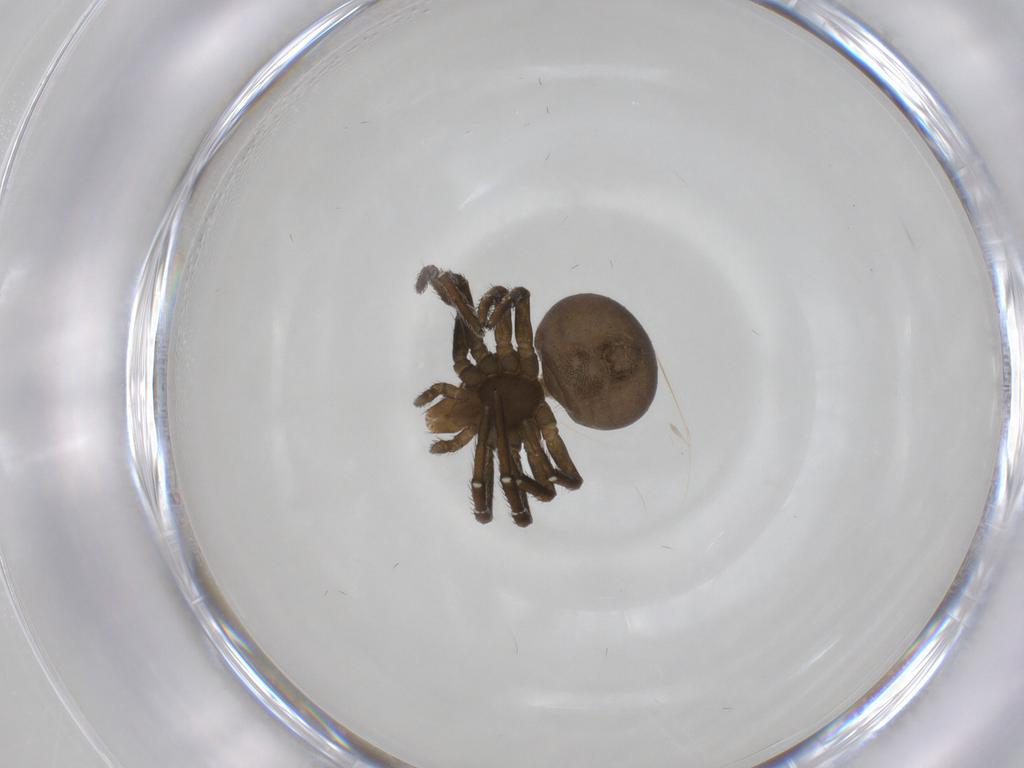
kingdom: Animalia
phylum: Arthropoda
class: Arachnida
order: Araneae
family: Thomisidae
